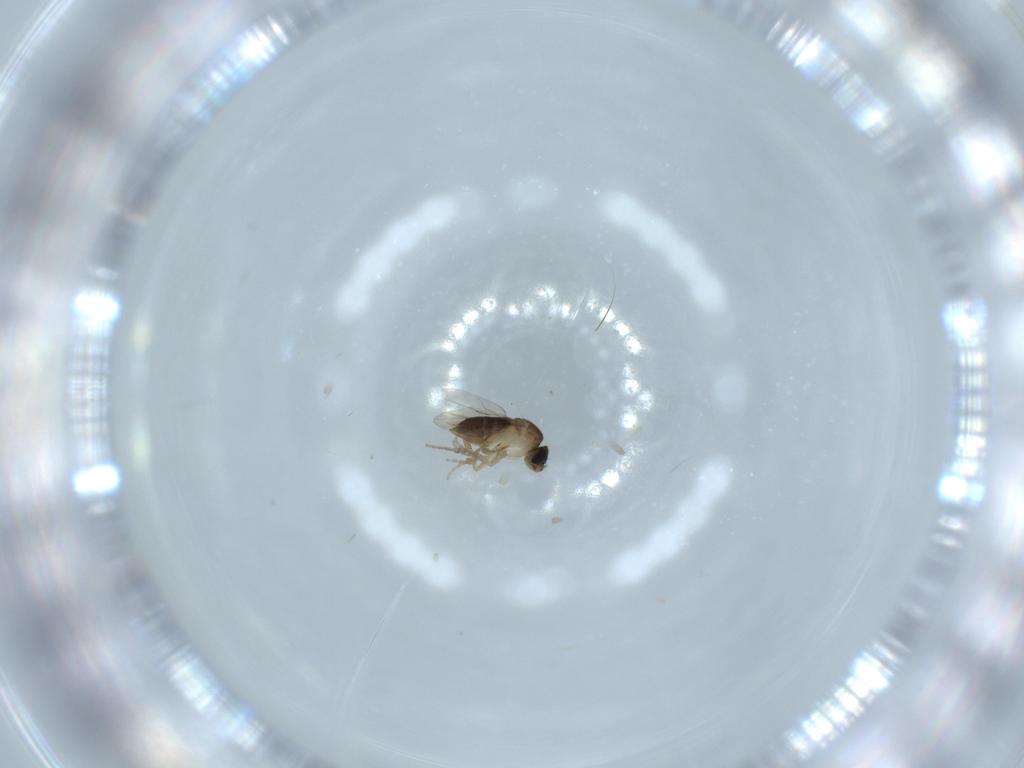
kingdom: Animalia
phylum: Arthropoda
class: Insecta
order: Diptera
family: Phoridae
